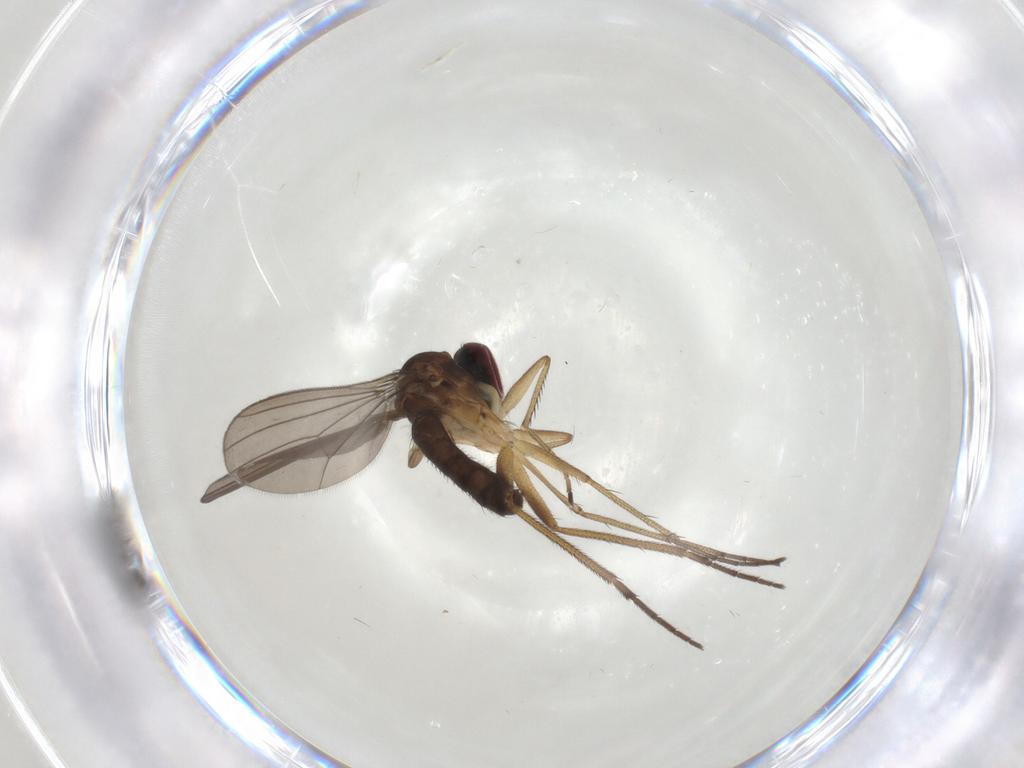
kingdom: Animalia
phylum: Arthropoda
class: Insecta
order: Diptera
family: Dolichopodidae
